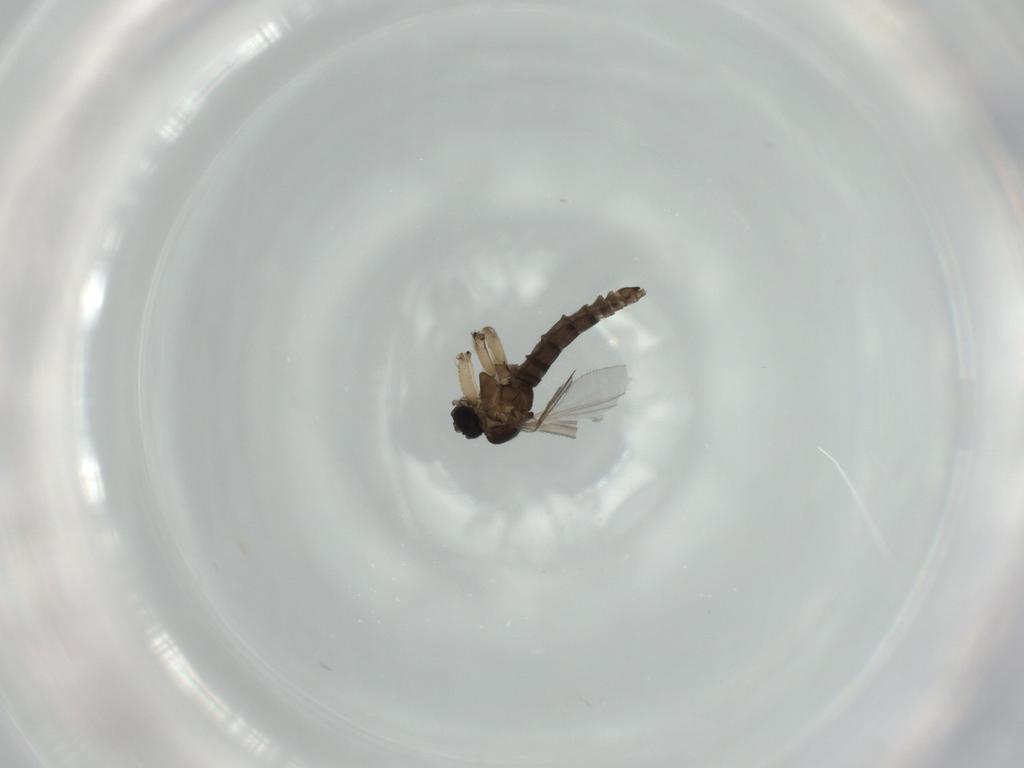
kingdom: Animalia
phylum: Arthropoda
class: Insecta
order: Diptera
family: Sciaridae
